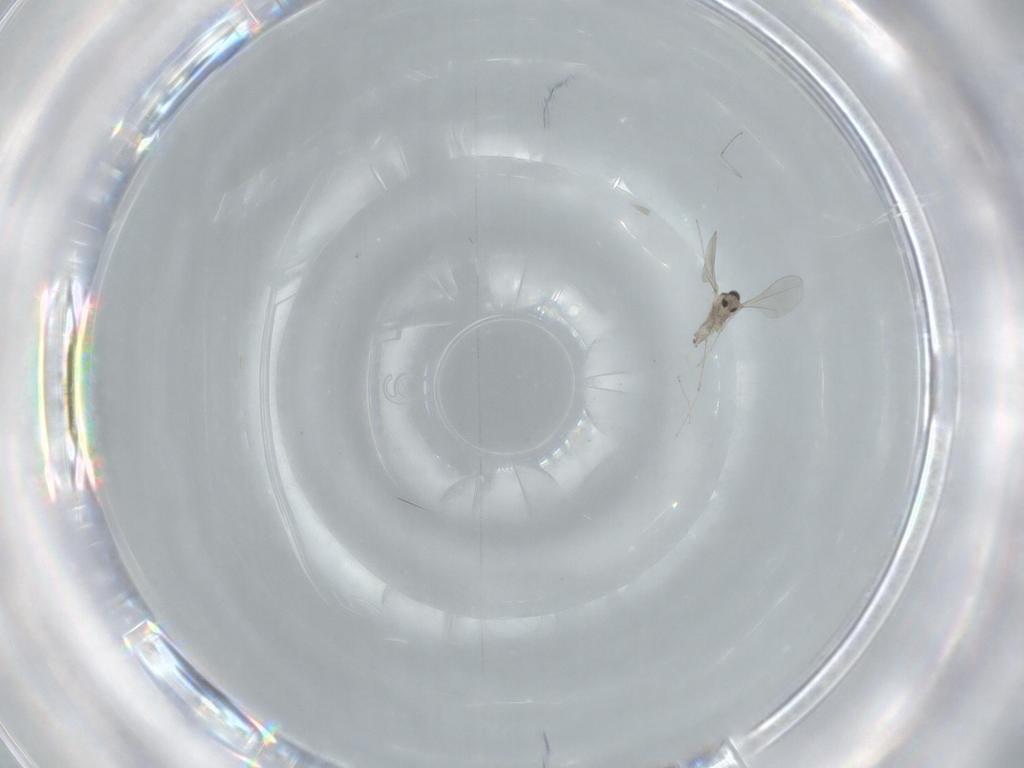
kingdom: Animalia
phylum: Arthropoda
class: Insecta
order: Diptera
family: Cecidomyiidae
